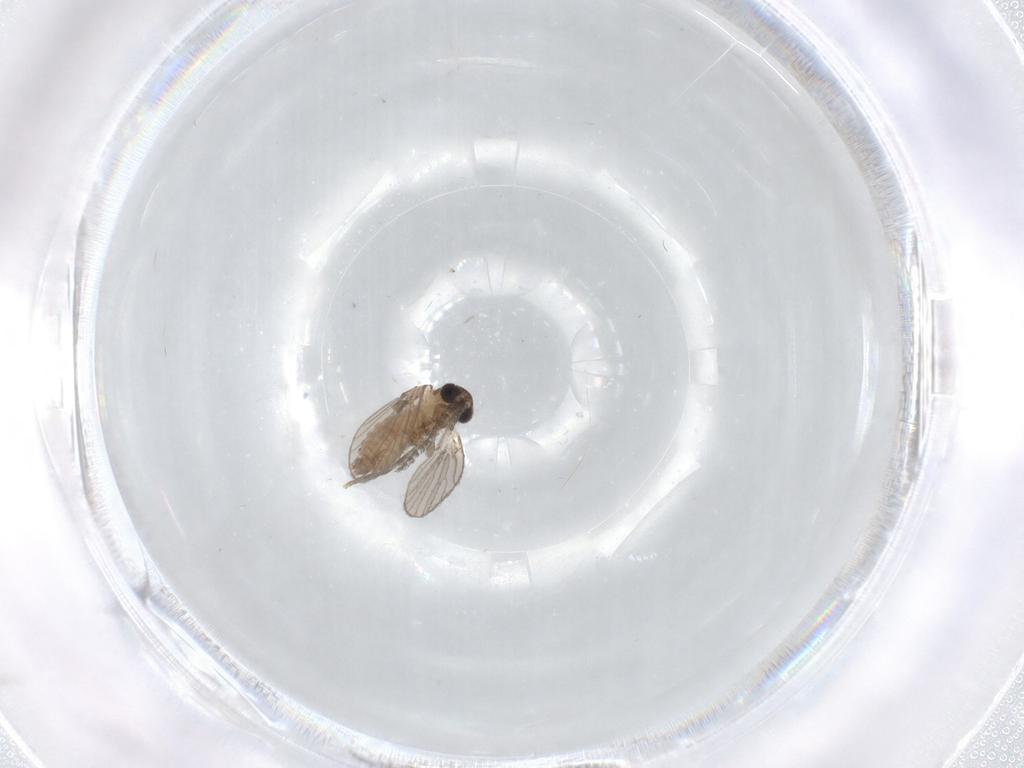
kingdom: Animalia
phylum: Arthropoda
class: Insecta
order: Diptera
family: Psychodidae
